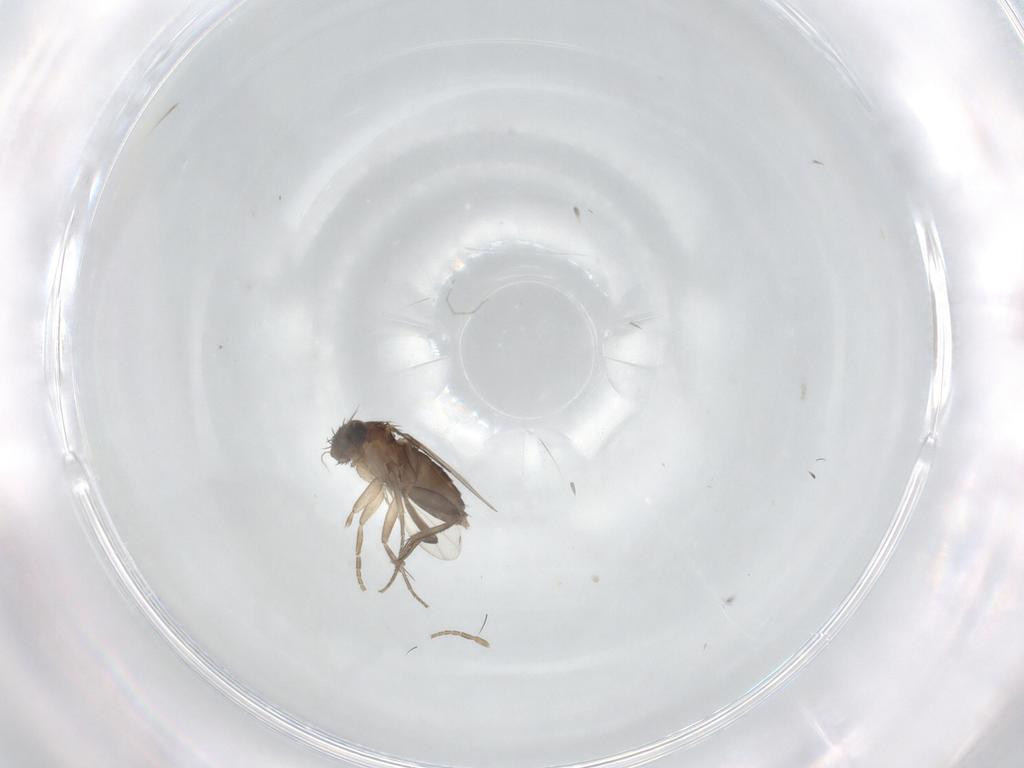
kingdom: Animalia
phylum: Arthropoda
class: Insecta
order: Diptera
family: Phoridae
